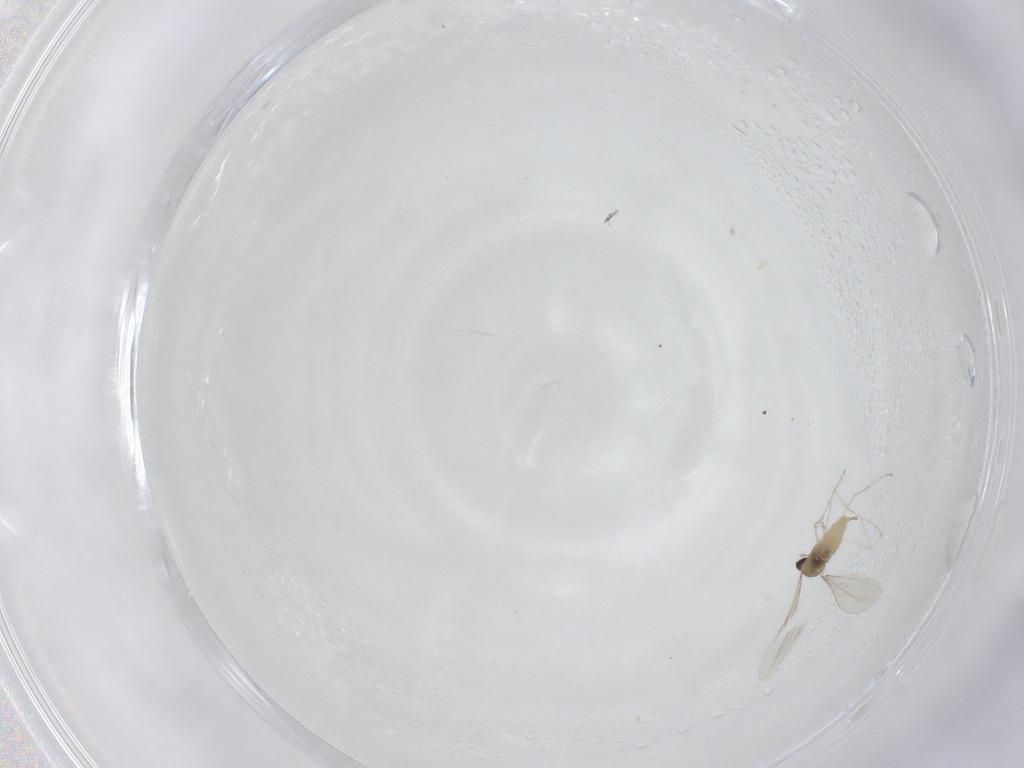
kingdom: Animalia
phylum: Arthropoda
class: Insecta
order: Diptera
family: Cecidomyiidae
